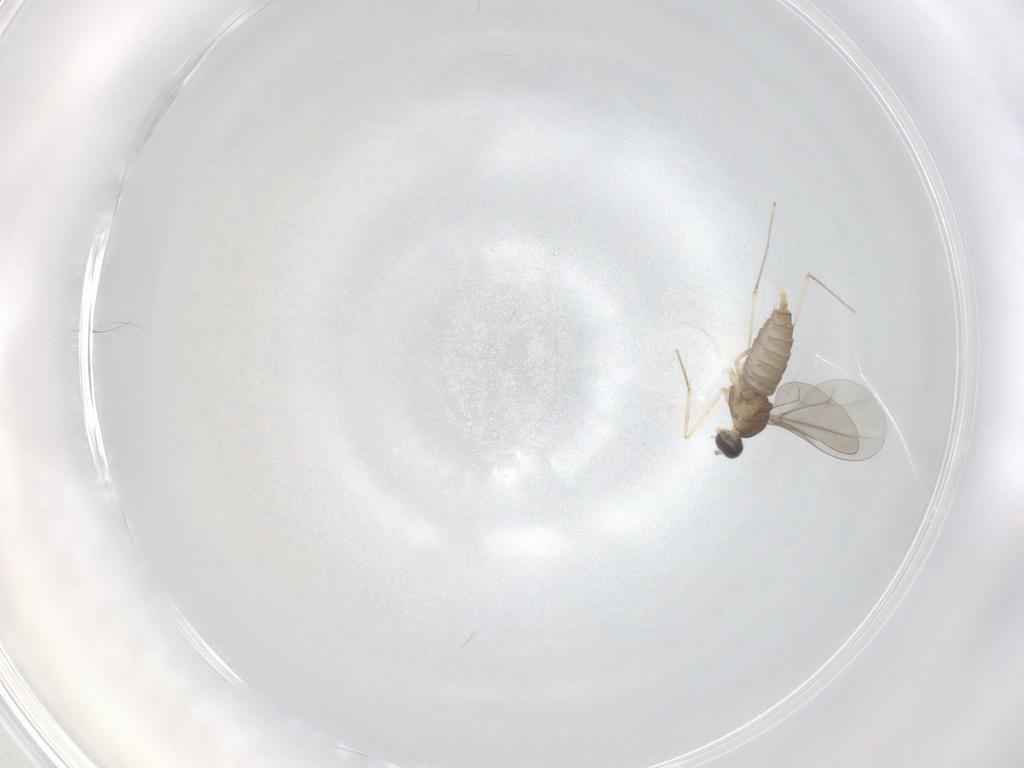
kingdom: Animalia
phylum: Arthropoda
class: Insecta
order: Diptera
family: Cecidomyiidae
